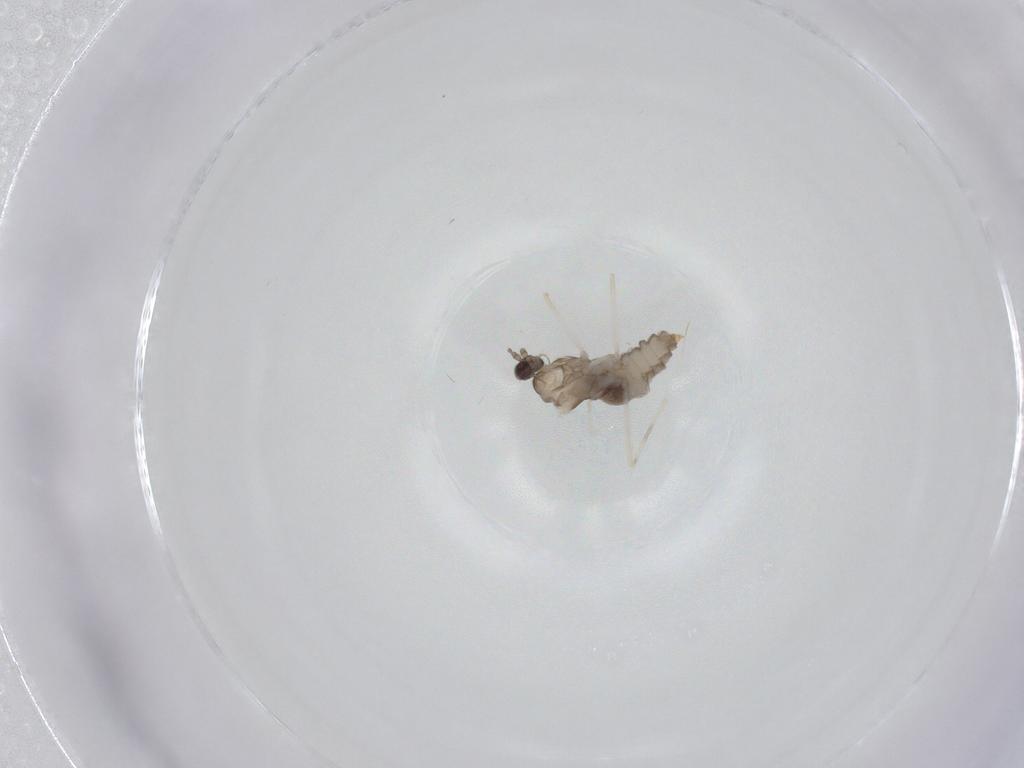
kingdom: Animalia
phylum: Arthropoda
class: Insecta
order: Diptera
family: Cecidomyiidae
